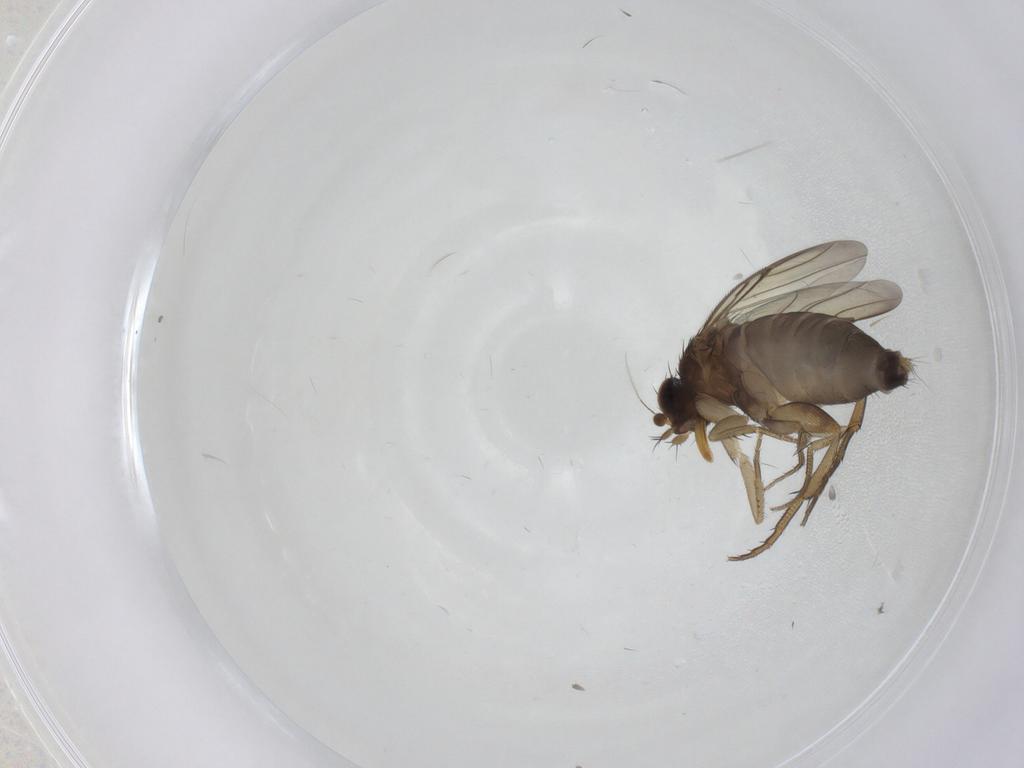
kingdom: Animalia
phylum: Arthropoda
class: Insecta
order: Diptera
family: Phoridae
